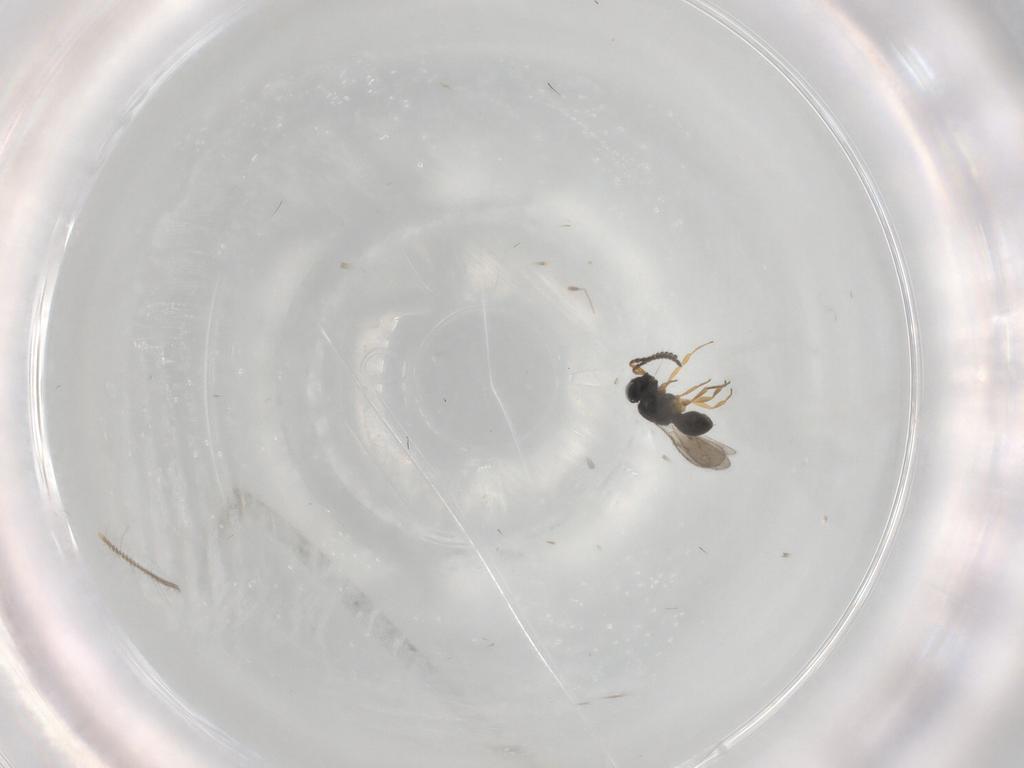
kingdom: Animalia
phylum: Arthropoda
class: Insecta
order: Hymenoptera
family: Scelionidae
